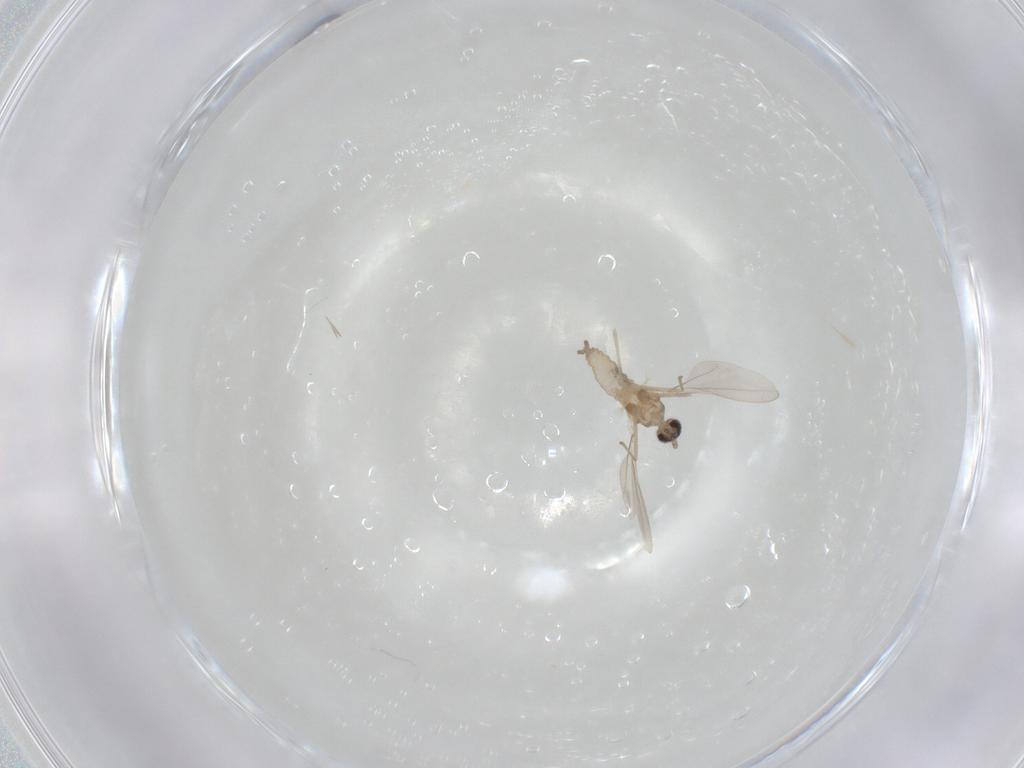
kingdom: Animalia
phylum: Arthropoda
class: Insecta
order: Diptera
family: Cecidomyiidae
